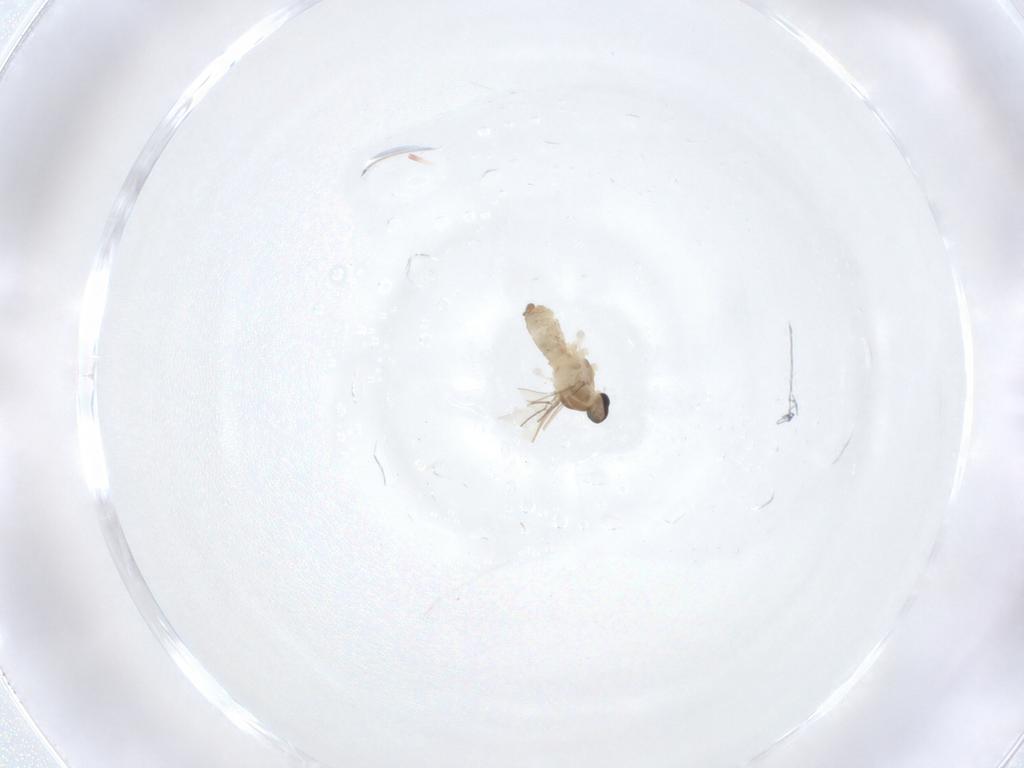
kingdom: Animalia
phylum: Arthropoda
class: Insecta
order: Diptera
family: Cecidomyiidae
